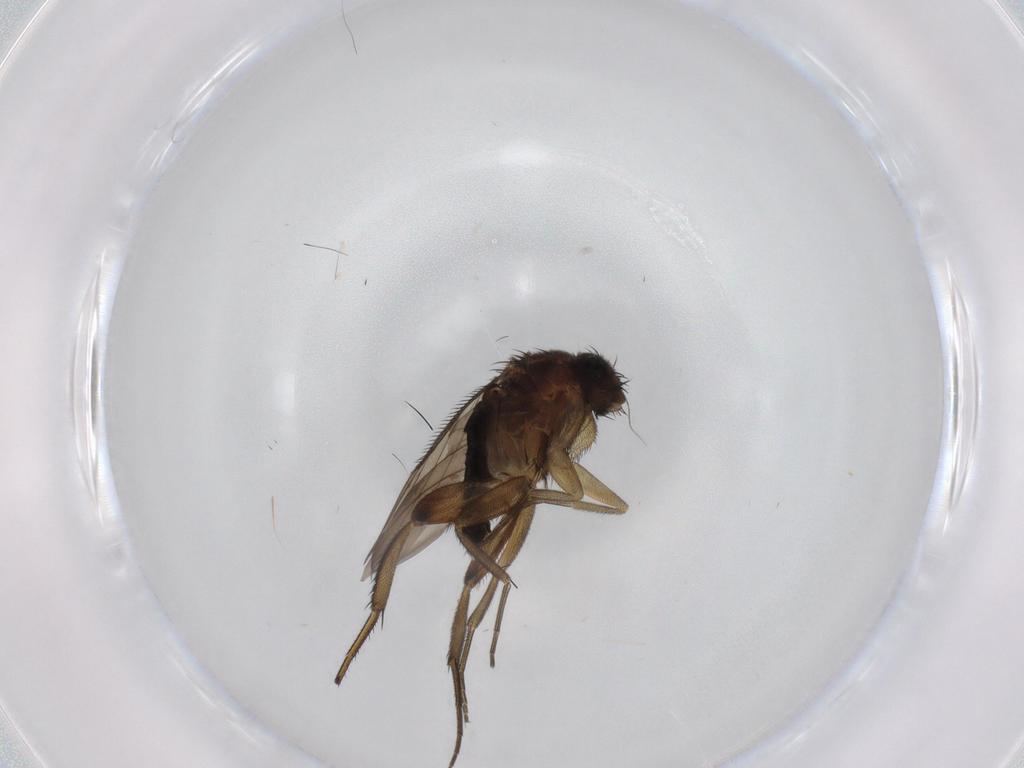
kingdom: Animalia
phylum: Arthropoda
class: Insecta
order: Diptera
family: Phoridae
